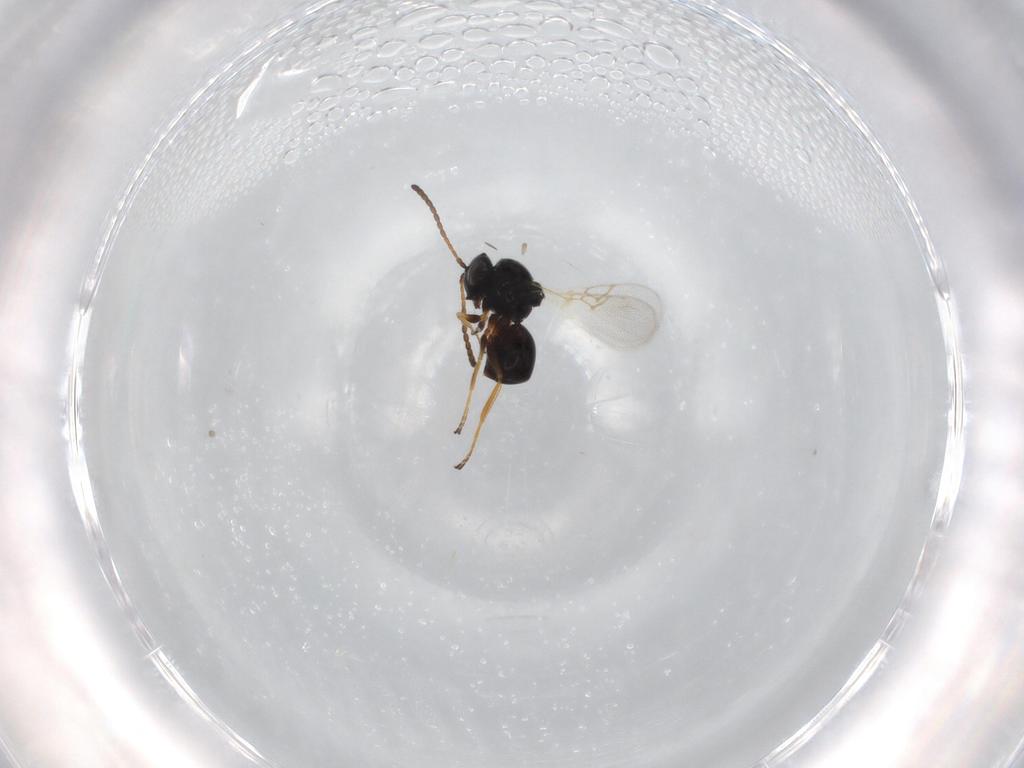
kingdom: Animalia
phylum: Arthropoda
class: Insecta
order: Hymenoptera
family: Figitidae
